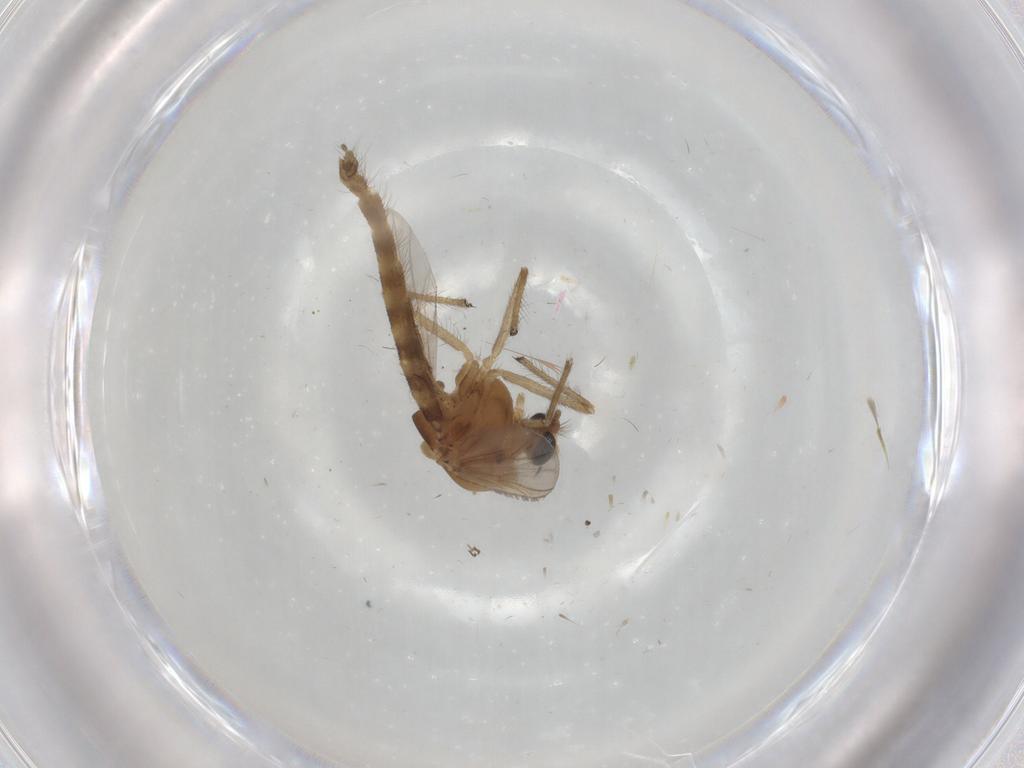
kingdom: Animalia
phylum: Arthropoda
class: Insecta
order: Diptera
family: Chironomidae
